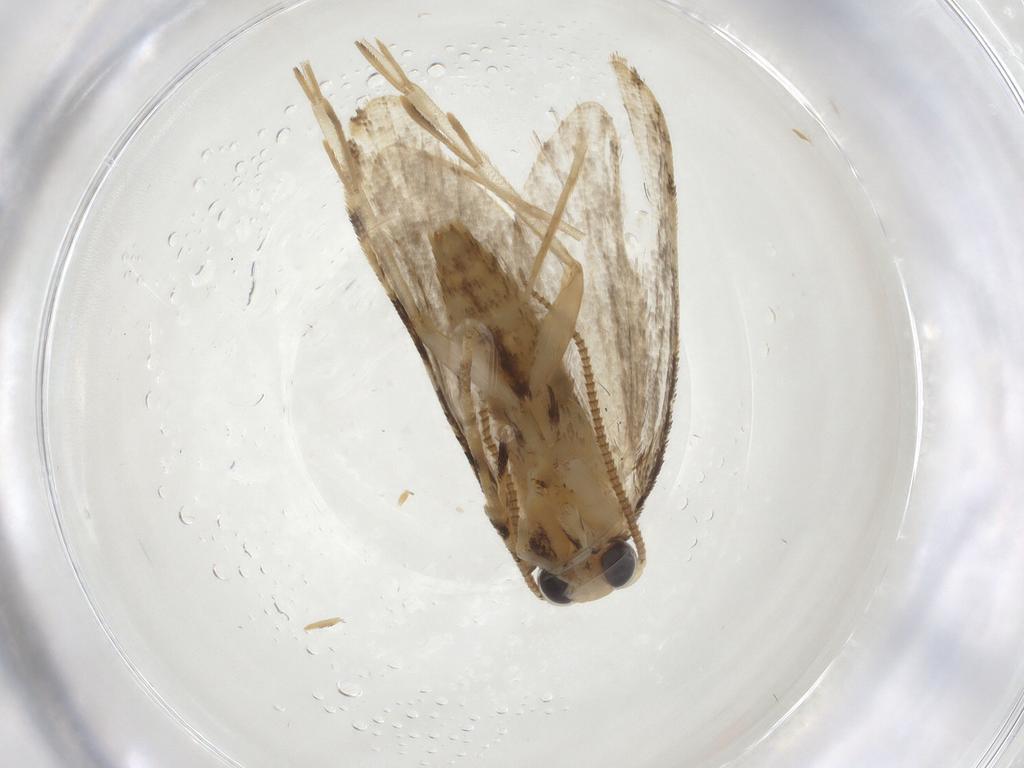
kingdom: Animalia
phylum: Arthropoda
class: Insecta
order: Lepidoptera
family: Tineidae
